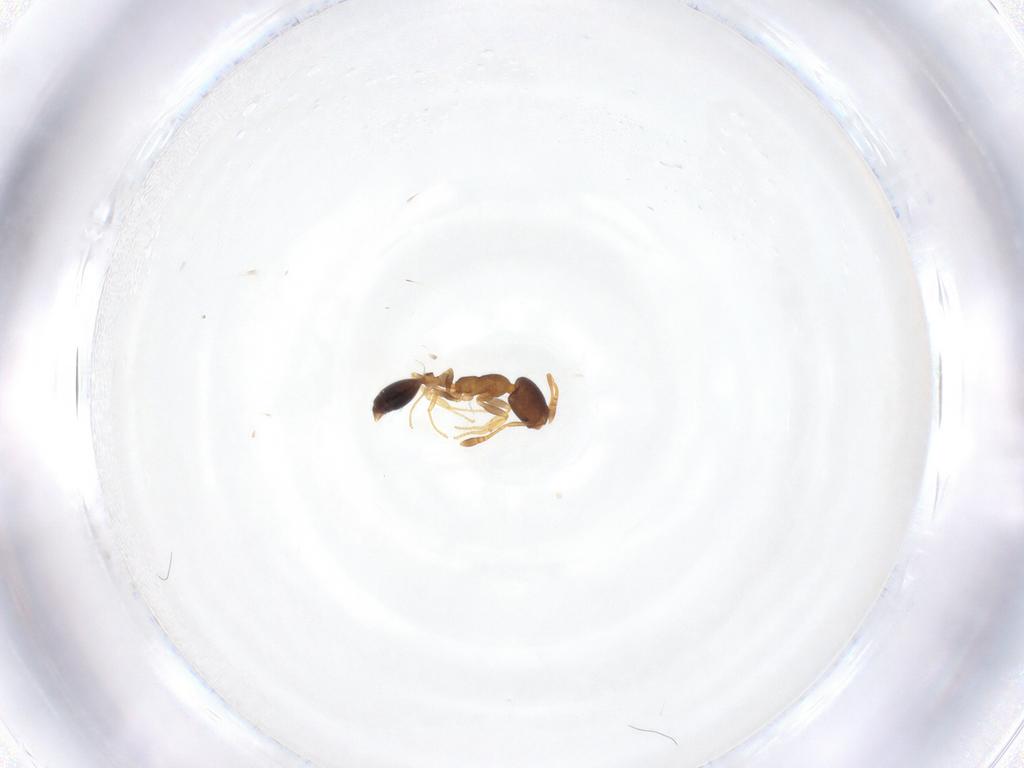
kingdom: Animalia
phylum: Arthropoda
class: Insecta
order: Hymenoptera
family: Formicidae
